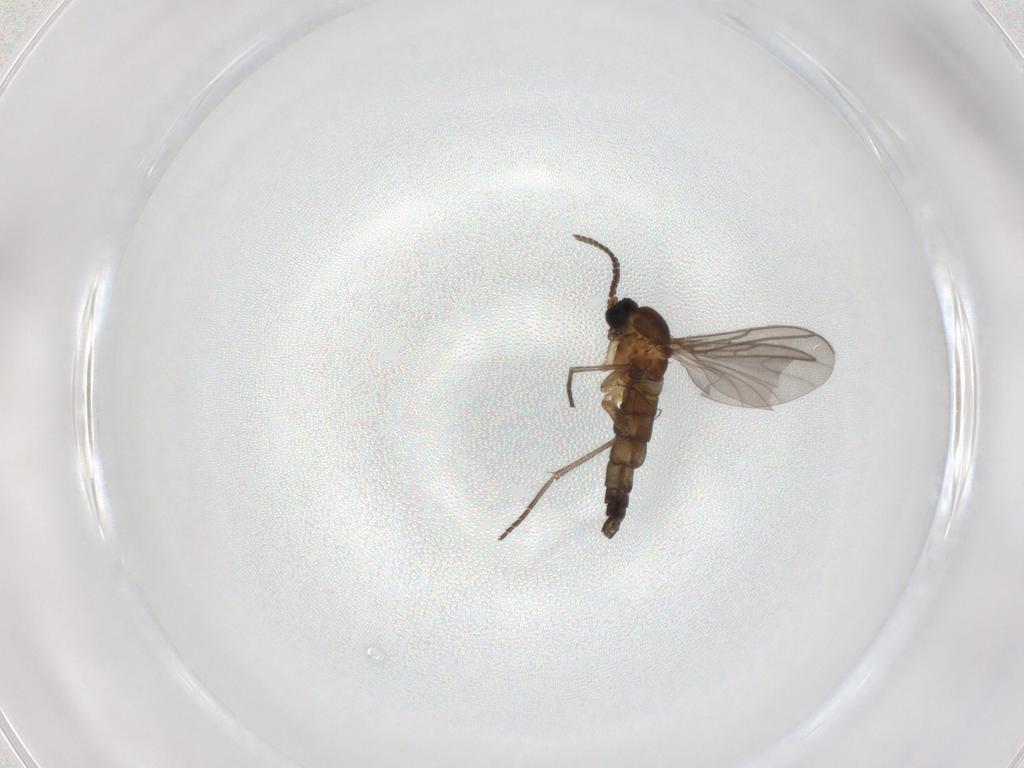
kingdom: Animalia
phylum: Arthropoda
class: Insecta
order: Diptera
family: Sciaridae
